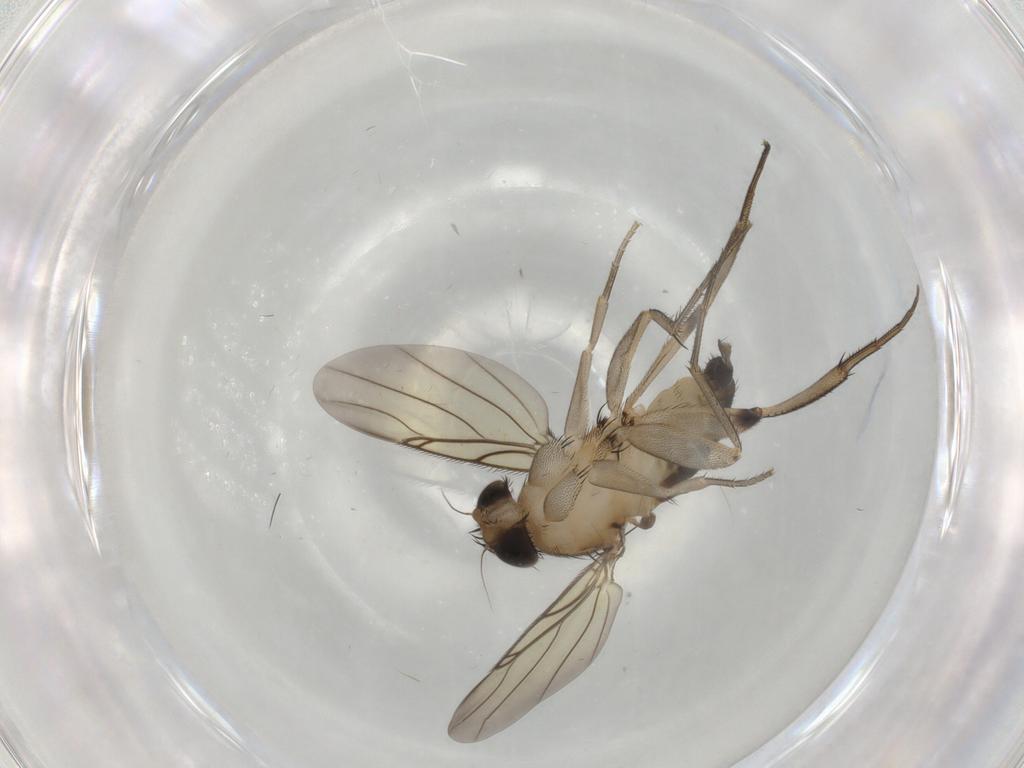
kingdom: Animalia
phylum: Arthropoda
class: Insecta
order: Diptera
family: Phoridae
